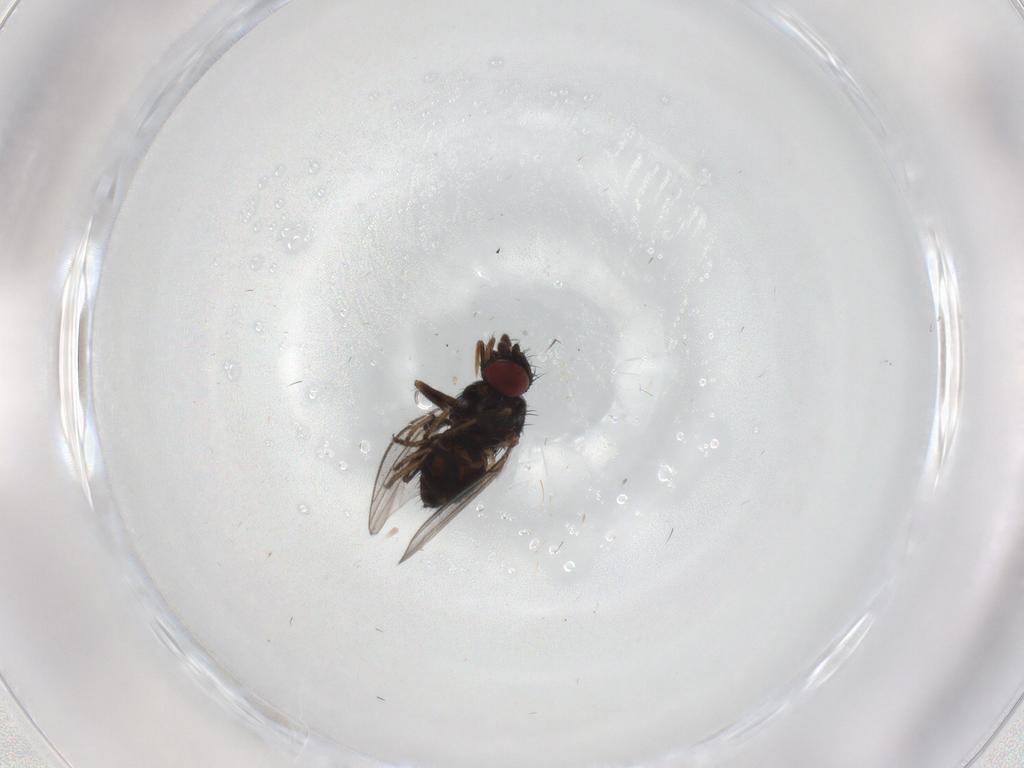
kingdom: Animalia
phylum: Arthropoda
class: Insecta
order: Diptera
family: Milichiidae
